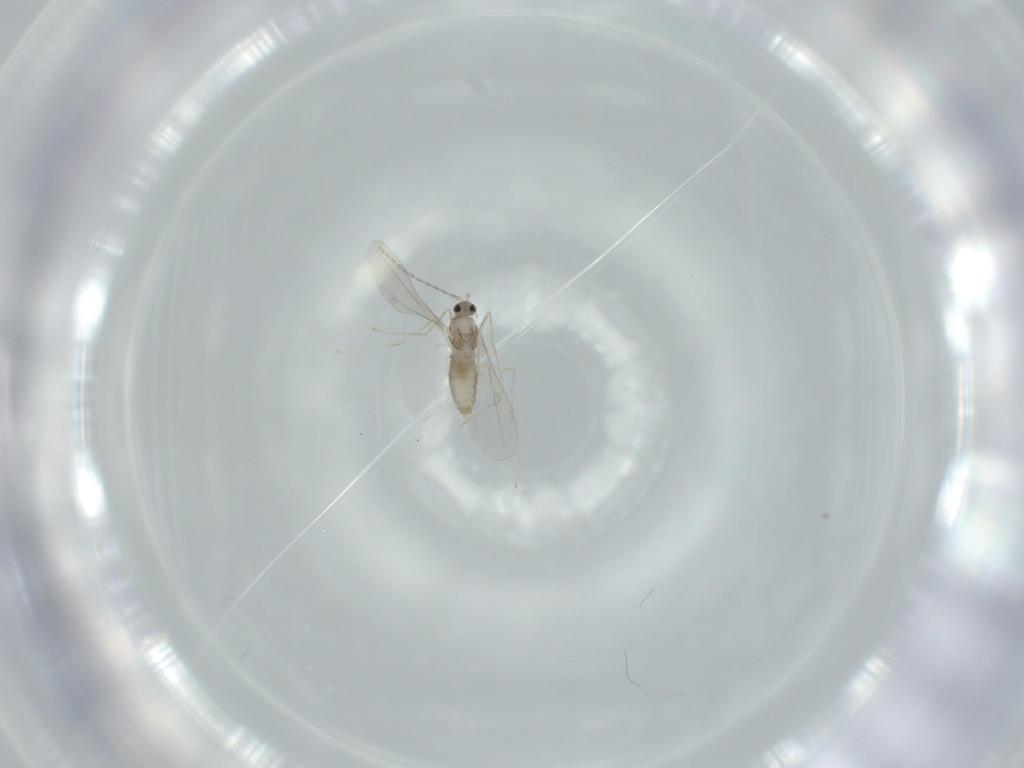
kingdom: Animalia
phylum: Arthropoda
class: Insecta
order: Diptera
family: Cecidomyiidae
